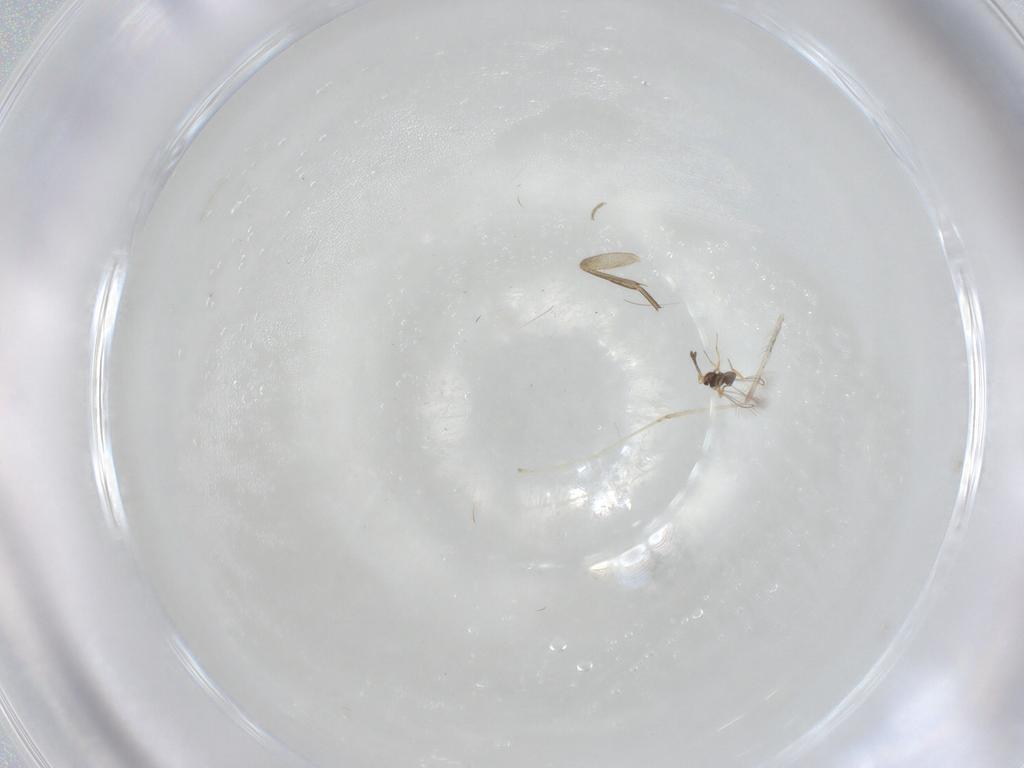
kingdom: Animalia
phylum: Arthropoda
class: Insecta
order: Hymenoptera
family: Mymaridae
